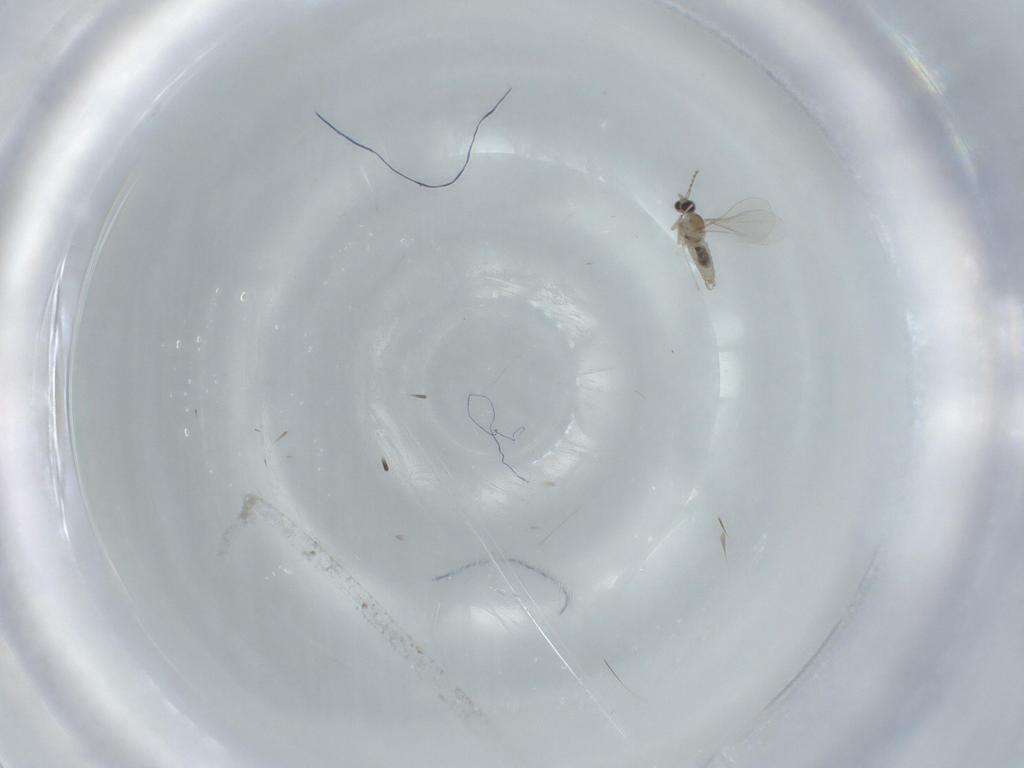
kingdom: Animalia
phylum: Arthropoda
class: Insecta
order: Diptera
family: Cecidomyiidae
